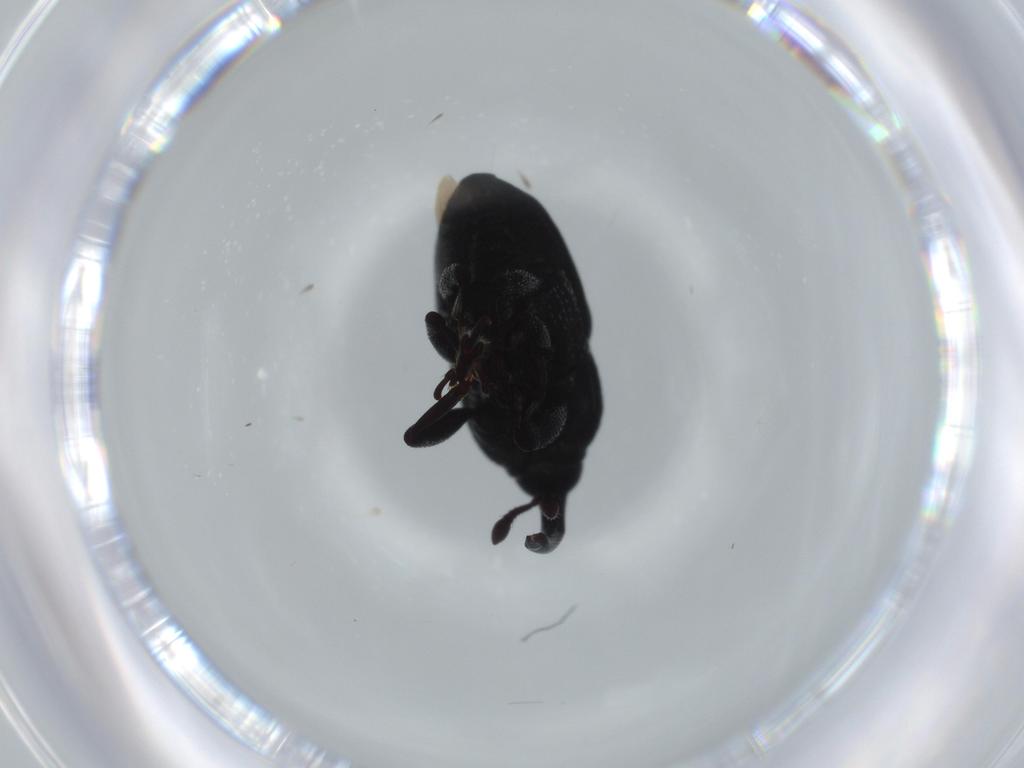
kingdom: Animalia
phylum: Arthropoda
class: Insecta
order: Coleoptera
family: Curculionidae
